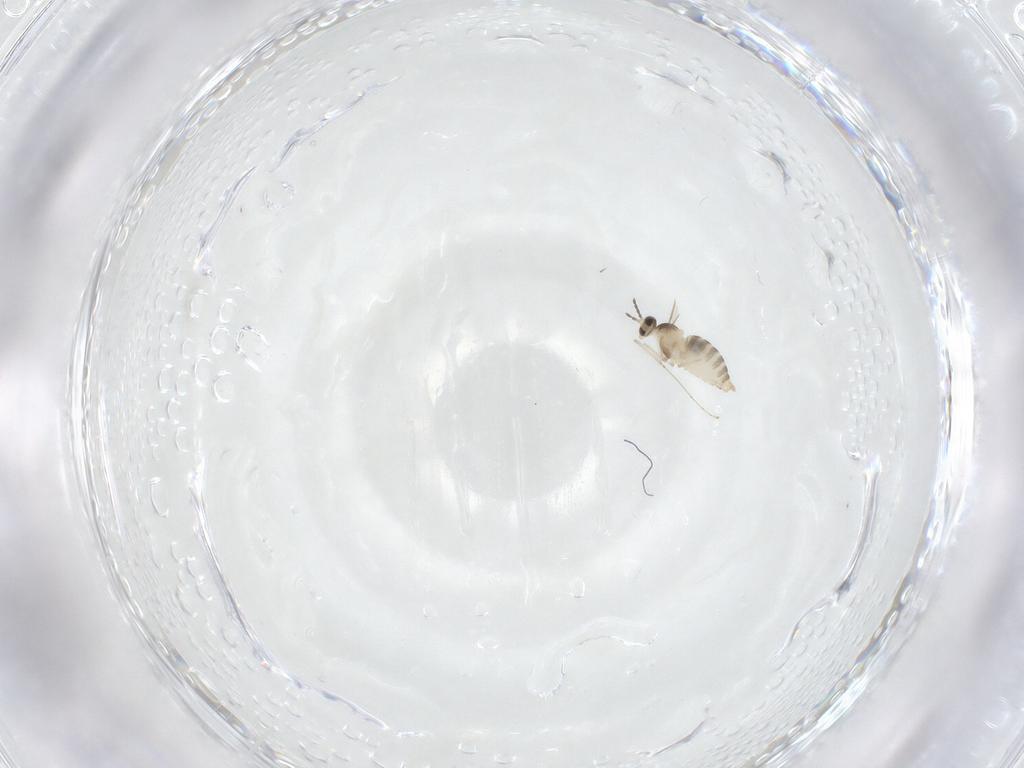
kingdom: Animalia
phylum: Arthropoda
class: Insecta
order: Diptera
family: Cecidomyiidae
